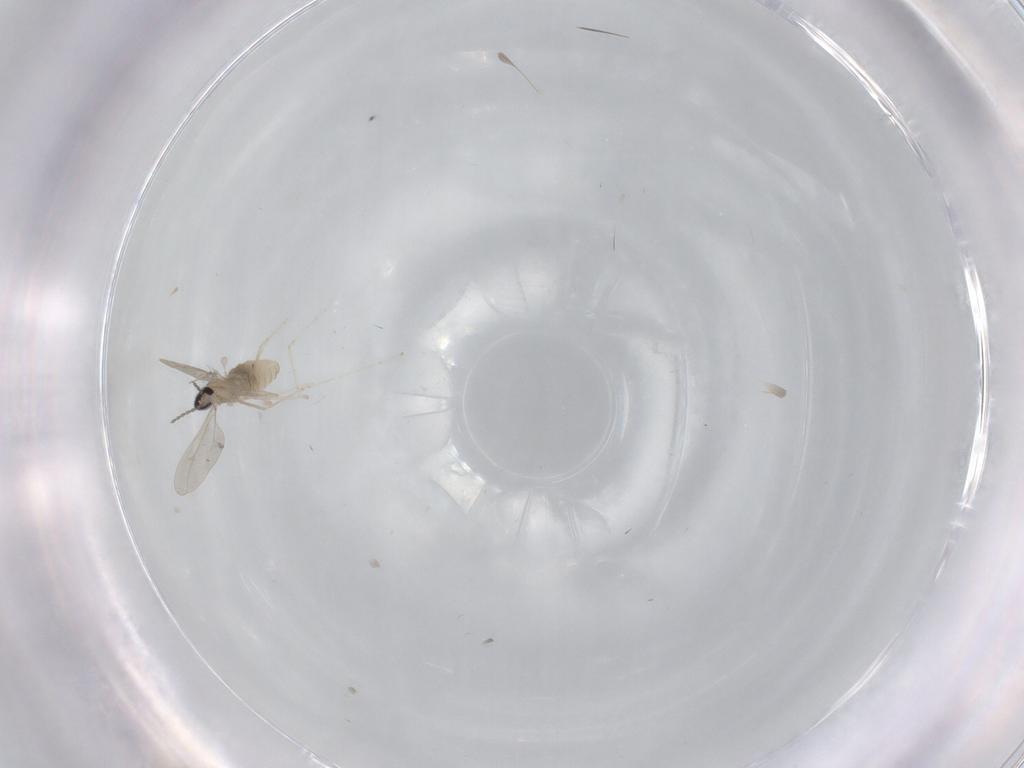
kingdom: Animalia
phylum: Arthropoda
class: Insecta
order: Diptera
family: Cecidomyiidae
